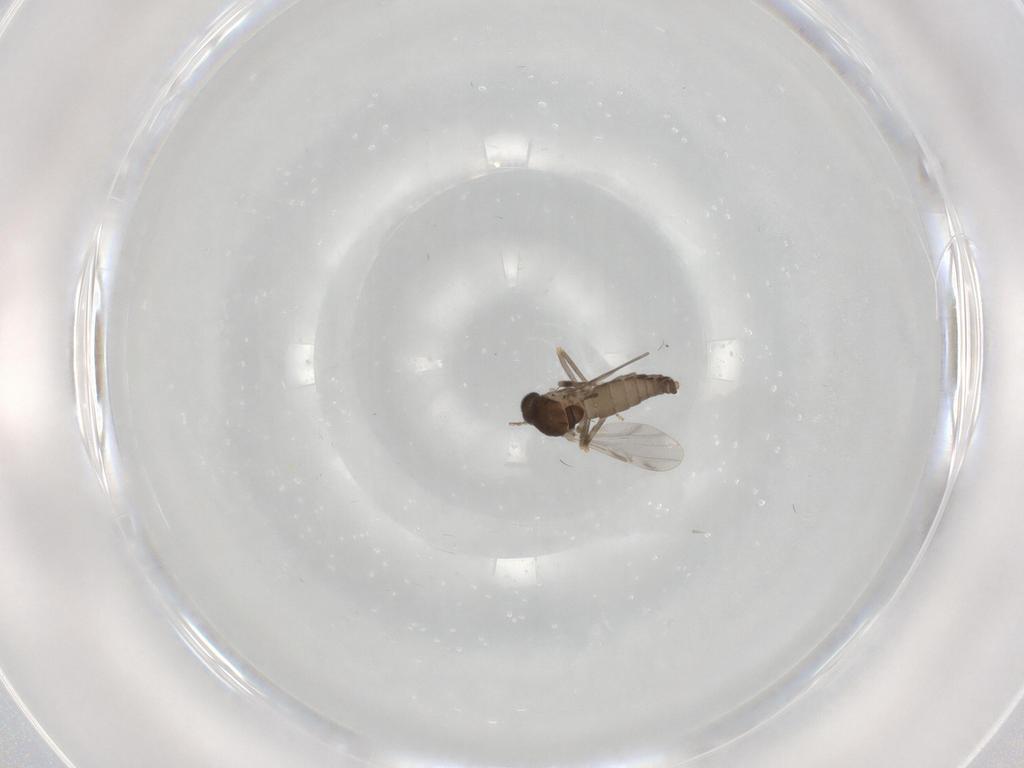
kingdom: Animalia
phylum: Arthropoda
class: Insecta
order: Diptera
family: Ceratopogonidae
